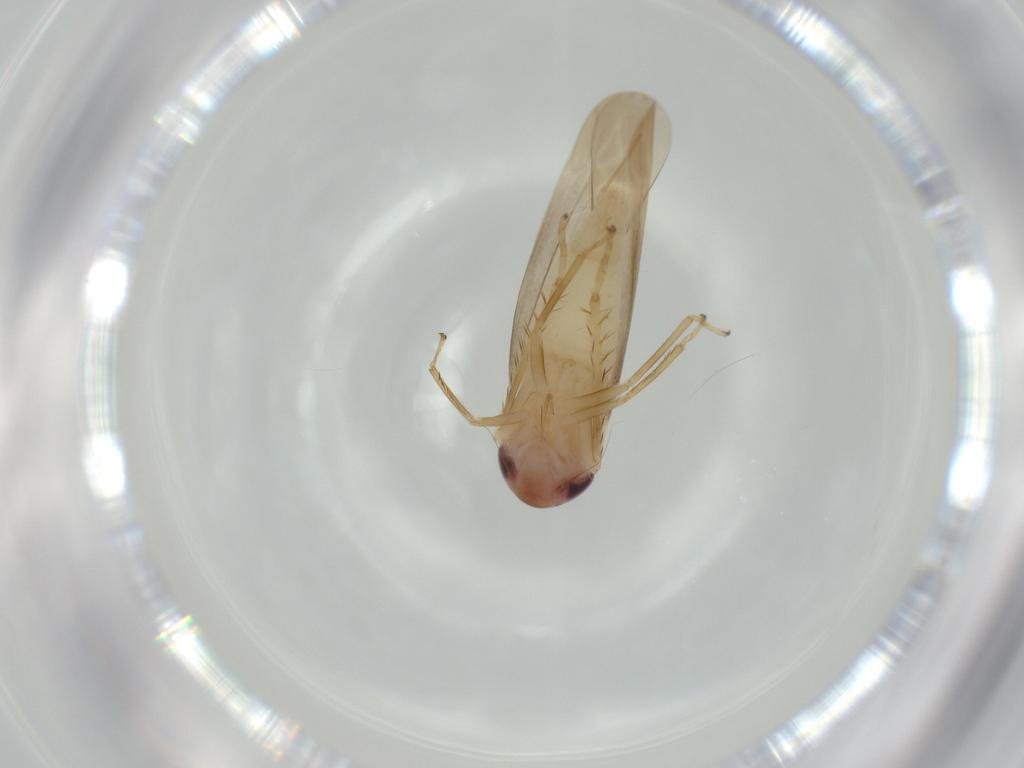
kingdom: Animalia
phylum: Arthropoda
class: Insecta
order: Hemiptera
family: Cicadellidae
